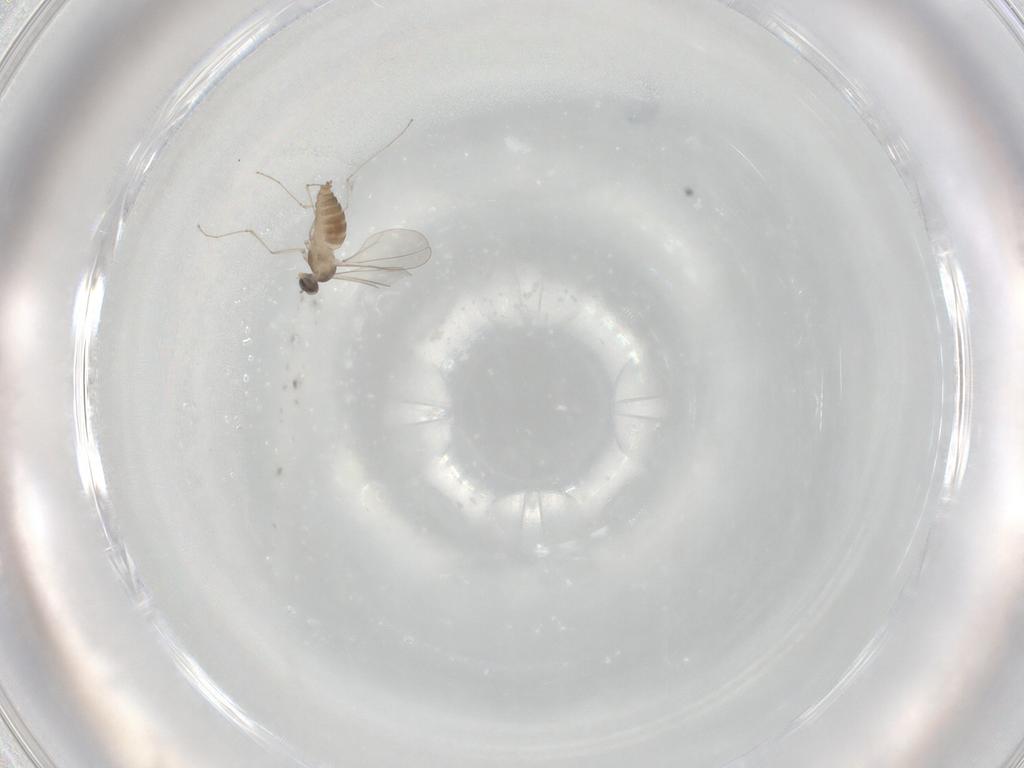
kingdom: Animalia
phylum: Arthropoda
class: Insecta
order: Diptera
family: Cecidomyiidae
